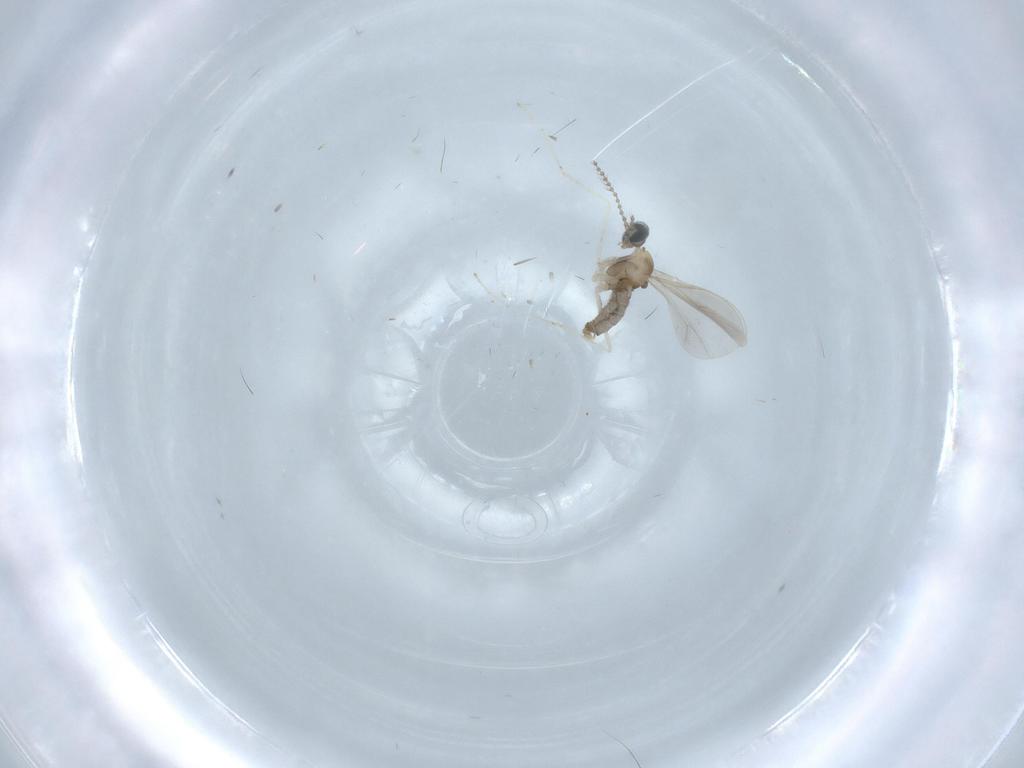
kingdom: Animalia
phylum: Arthropoda
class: Insecta
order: Diptera
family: Cecidomyiidae
